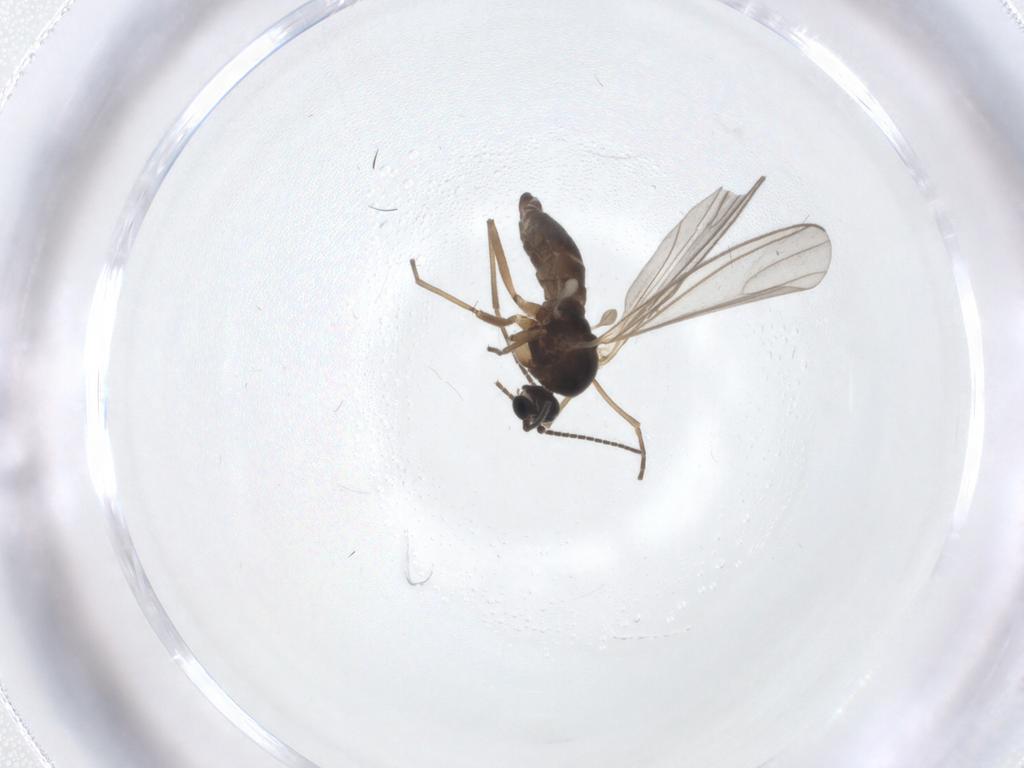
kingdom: Animalia
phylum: Arthropoda
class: Insecta
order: Diptera
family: Sciaridae
